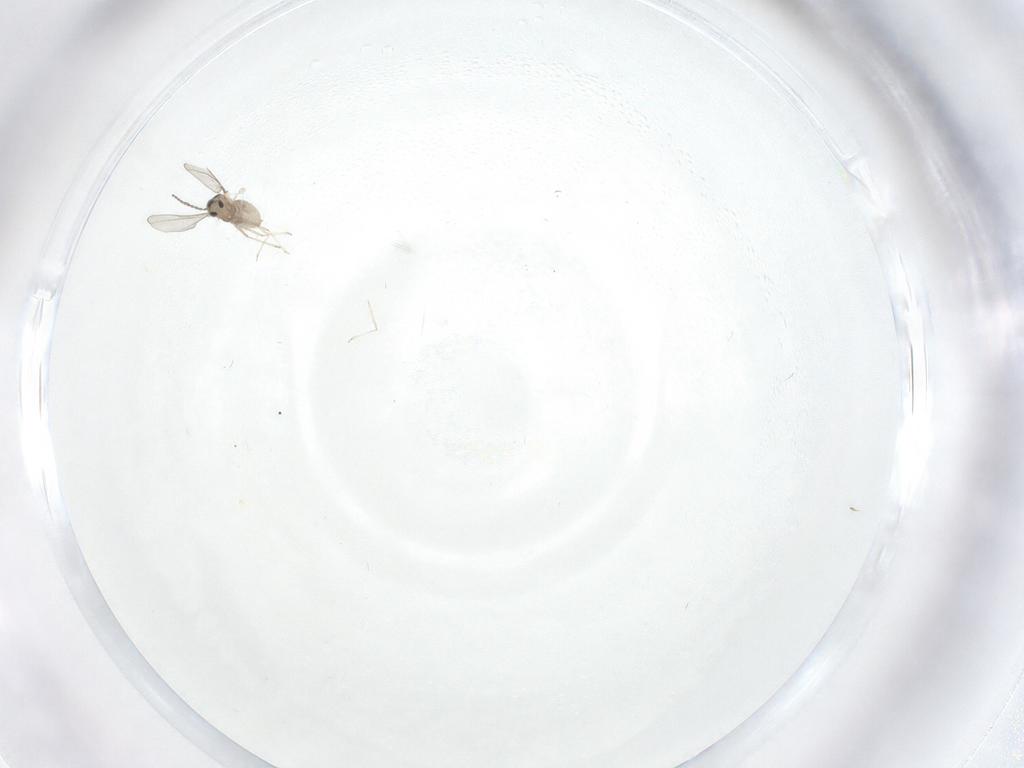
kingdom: Animalia
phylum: Arthropoda
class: Insecta
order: Diptera
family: Cecidomyiidae
